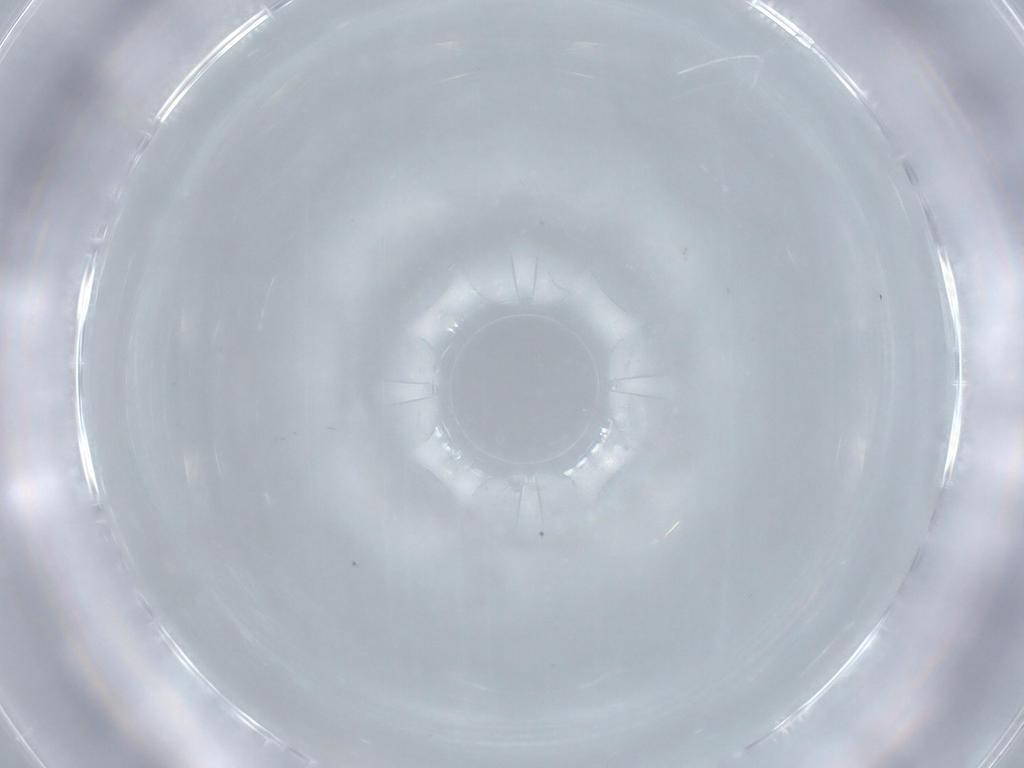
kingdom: Animalia
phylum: Arthropoda
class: Insecta
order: Diptera
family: Cecidomyiidae
